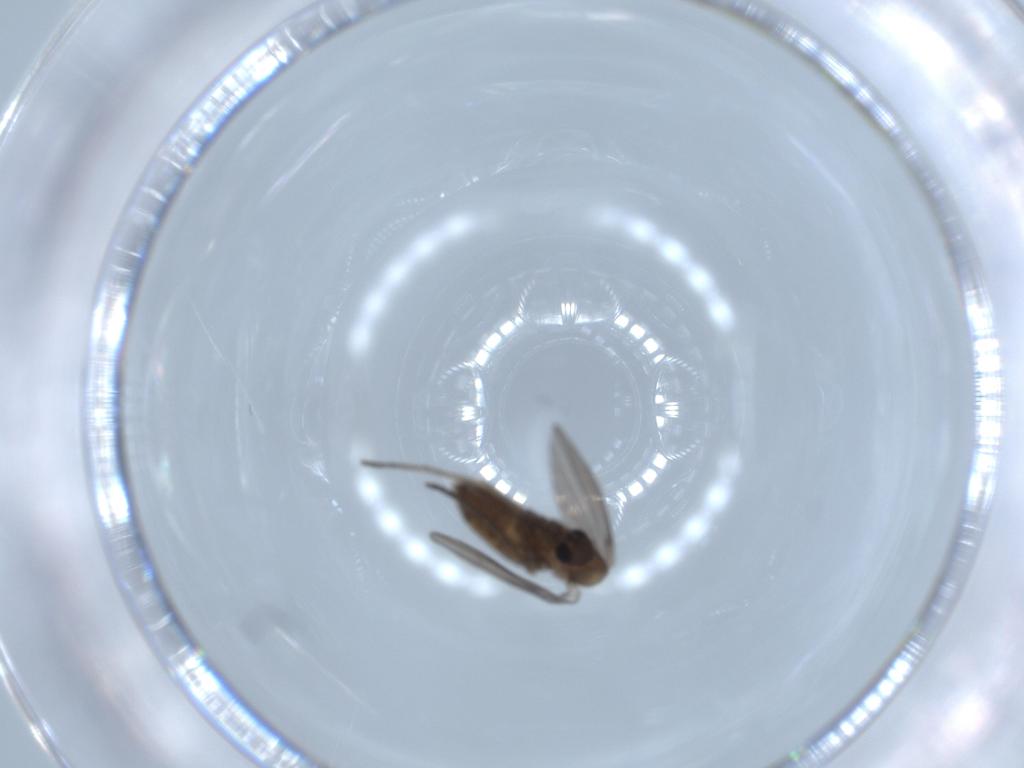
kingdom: Animalia
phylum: Arthropoda
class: Insecta
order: Diptera
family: Psychodidae
